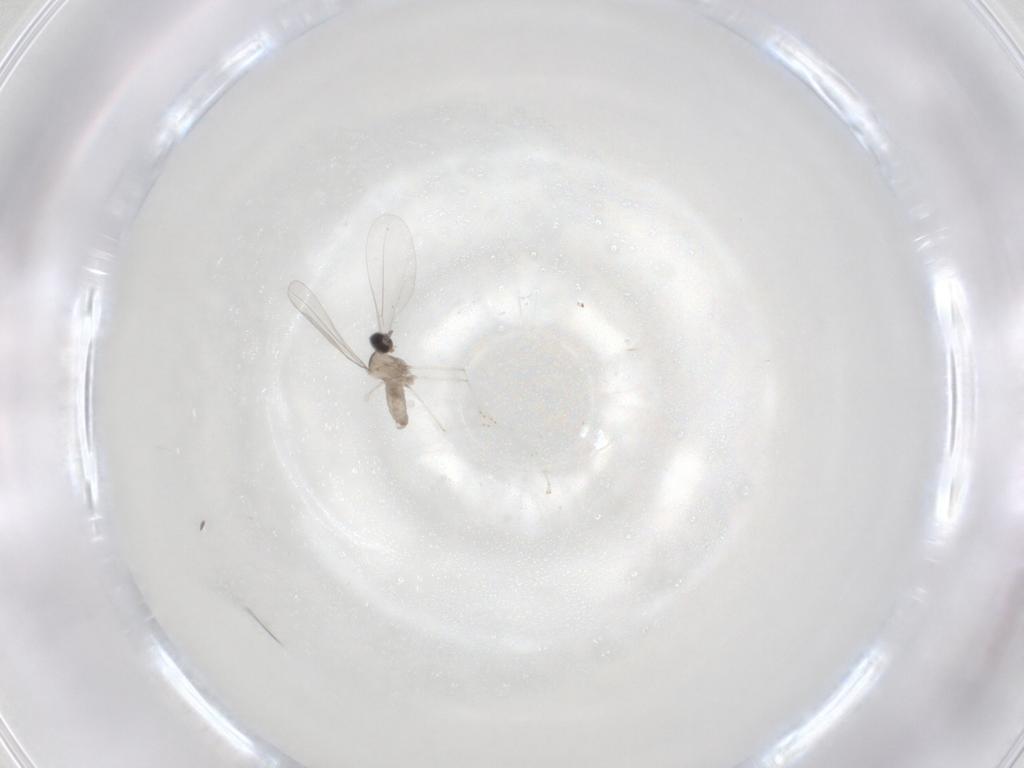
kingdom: Animalia
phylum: Arthropoda
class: Insecta
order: Diptera
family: Cecidomyiidae
